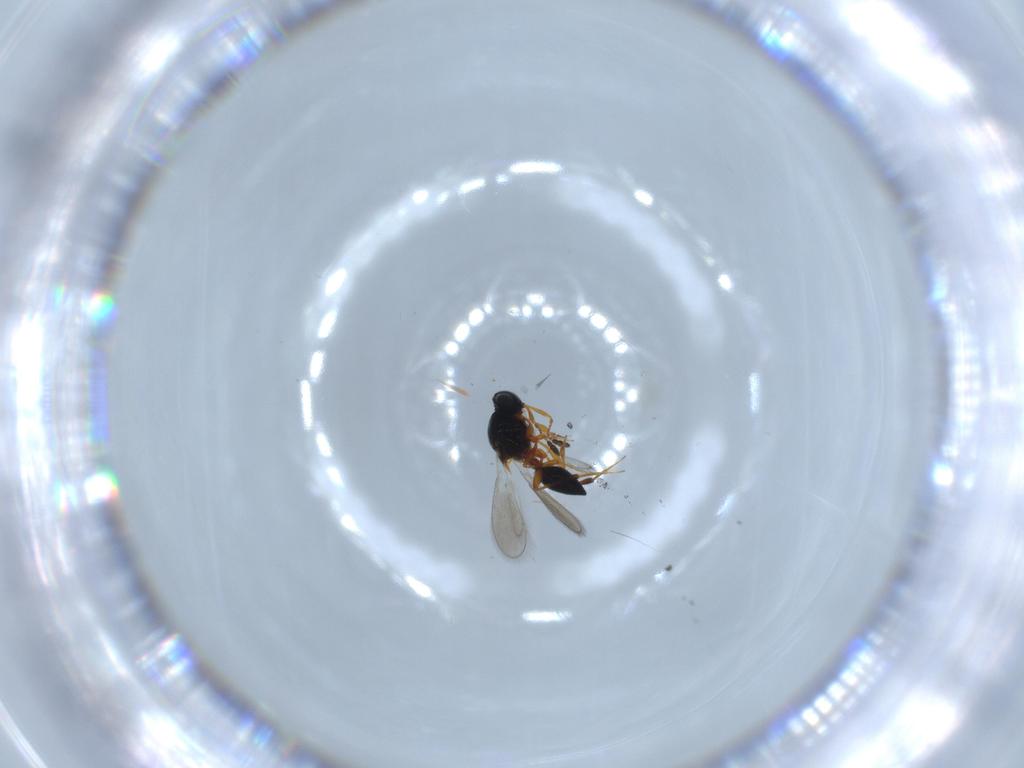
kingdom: Animalia
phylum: Arthropoda
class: Insecta
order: Hymenoptera
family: Platygastridae
